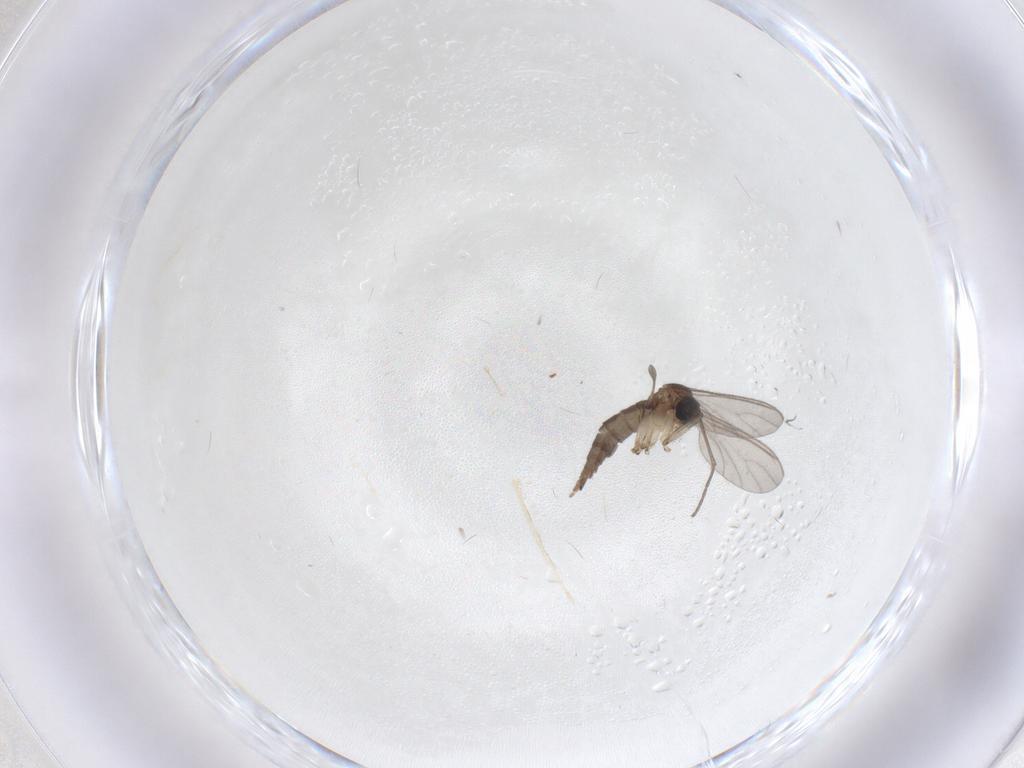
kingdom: Animalia
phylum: Arthropoda
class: Insecta
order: Diptera
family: Sciaridae
